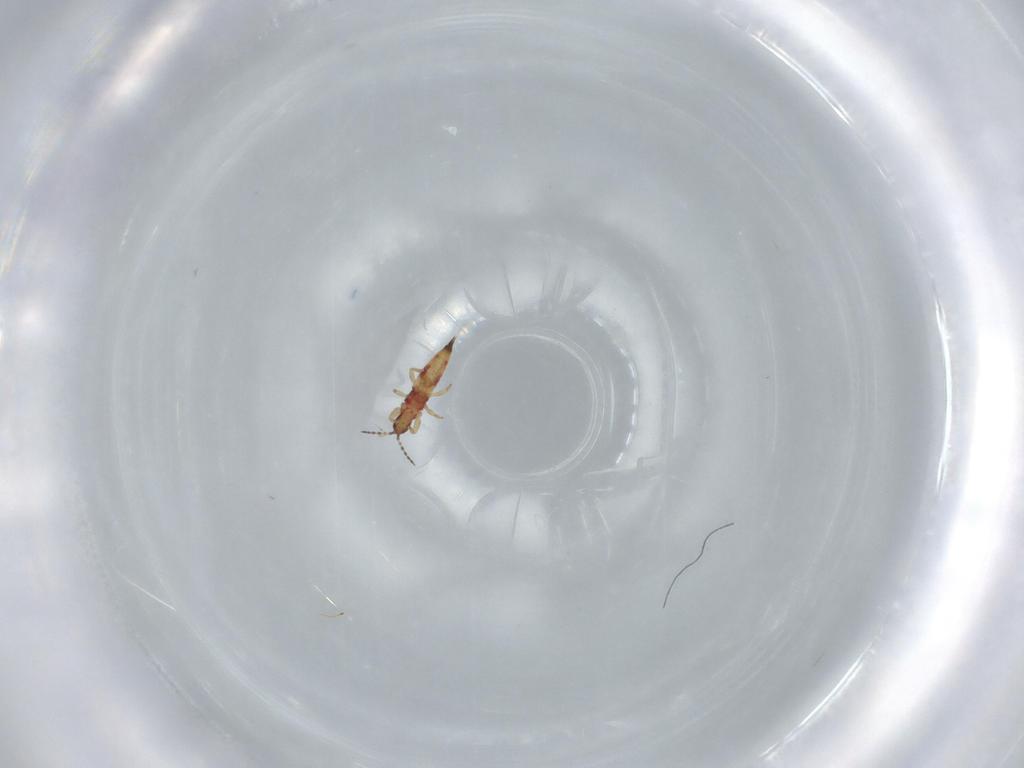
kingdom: Animalia
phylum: Arthropoda
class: Insecta
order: Thysanoptera
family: Phlaeothripidae
